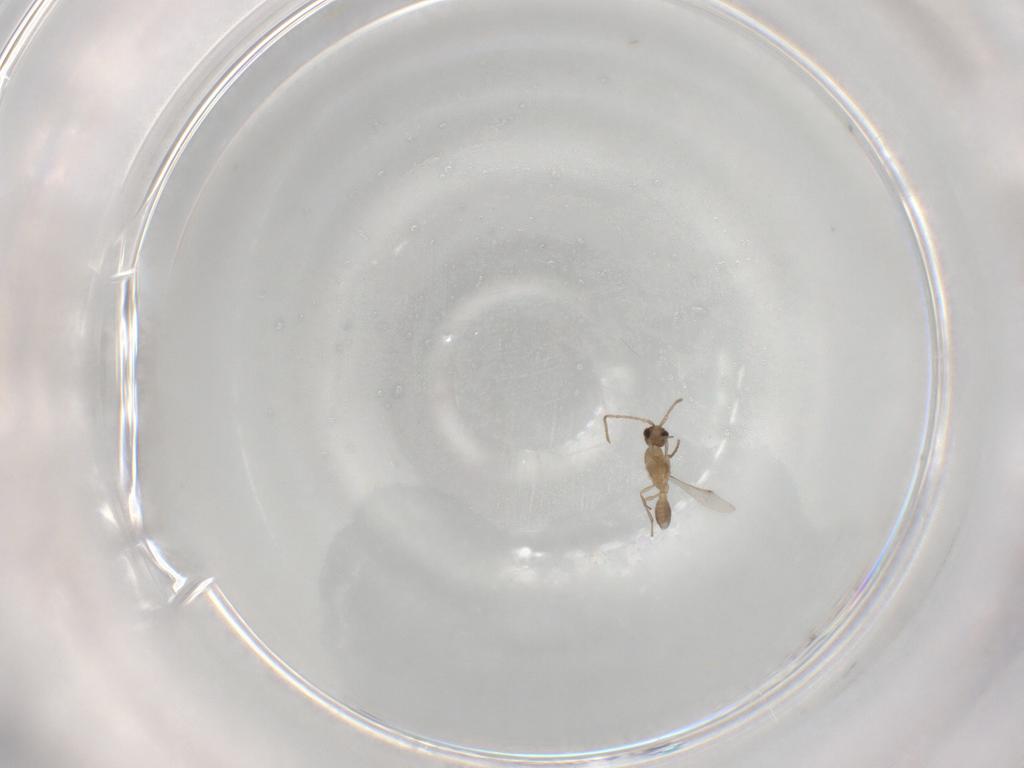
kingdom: Animalia
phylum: Arthropoda
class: Insecta
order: Hymenoptera
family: Formicidae
